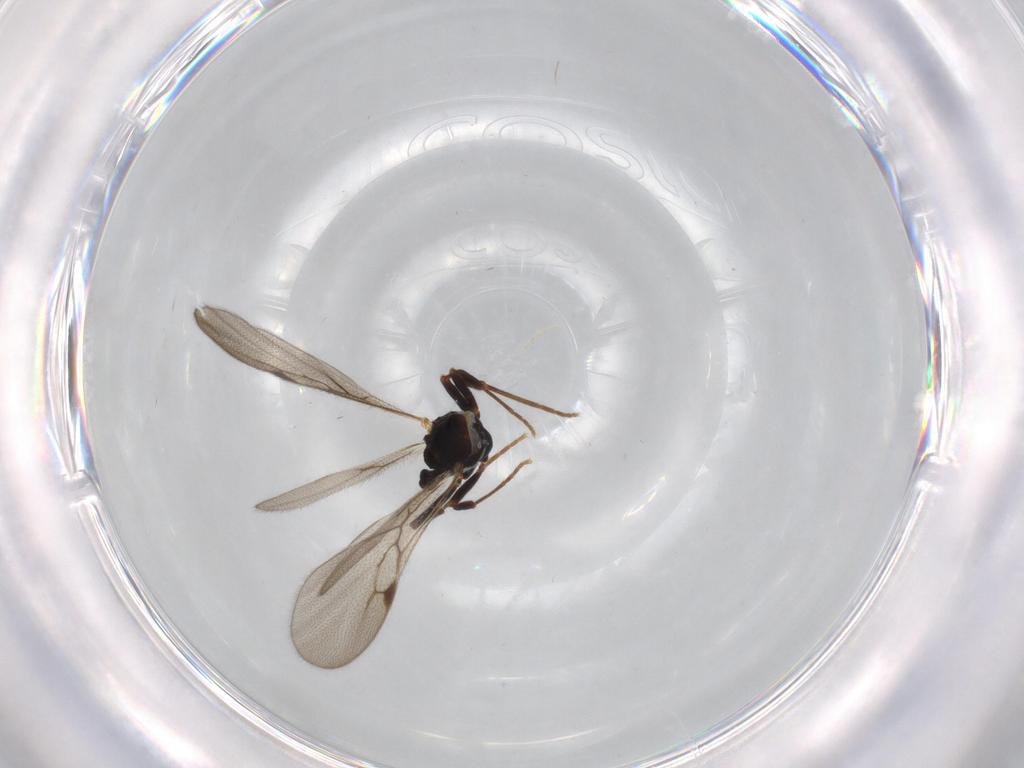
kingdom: Animalia
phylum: Arthropoda
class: Insecta
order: Hymenoptera
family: Formicidae
